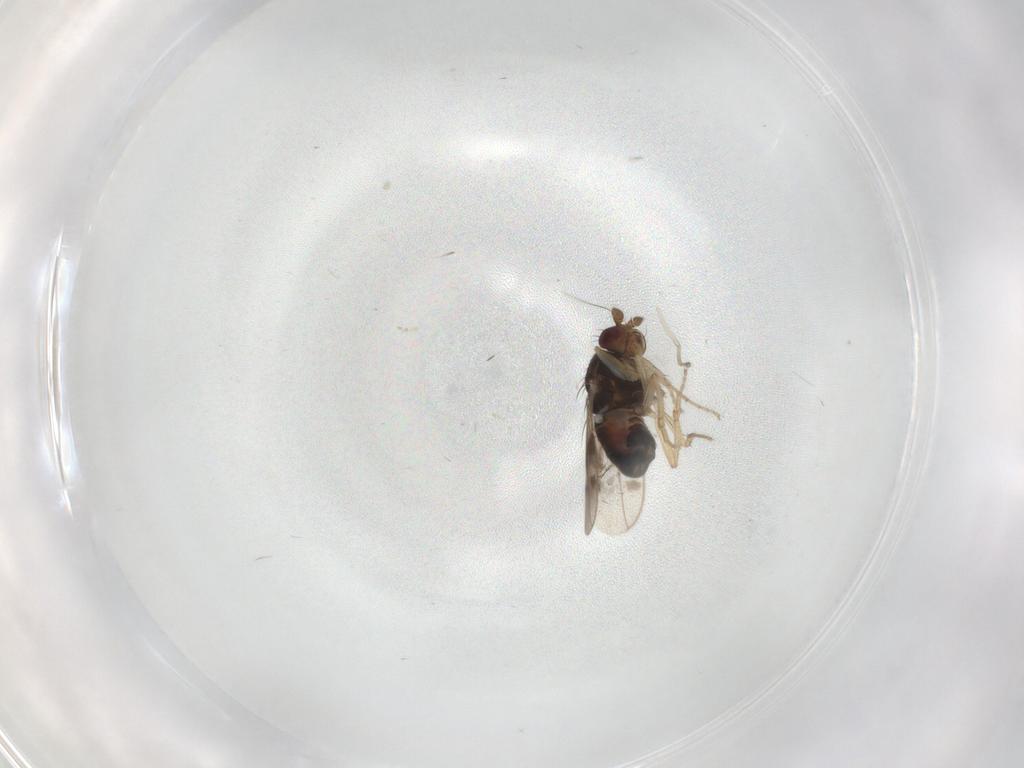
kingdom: Animalia
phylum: Arthropoda
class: Insecta
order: Diptera
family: Sphaeroceridae
